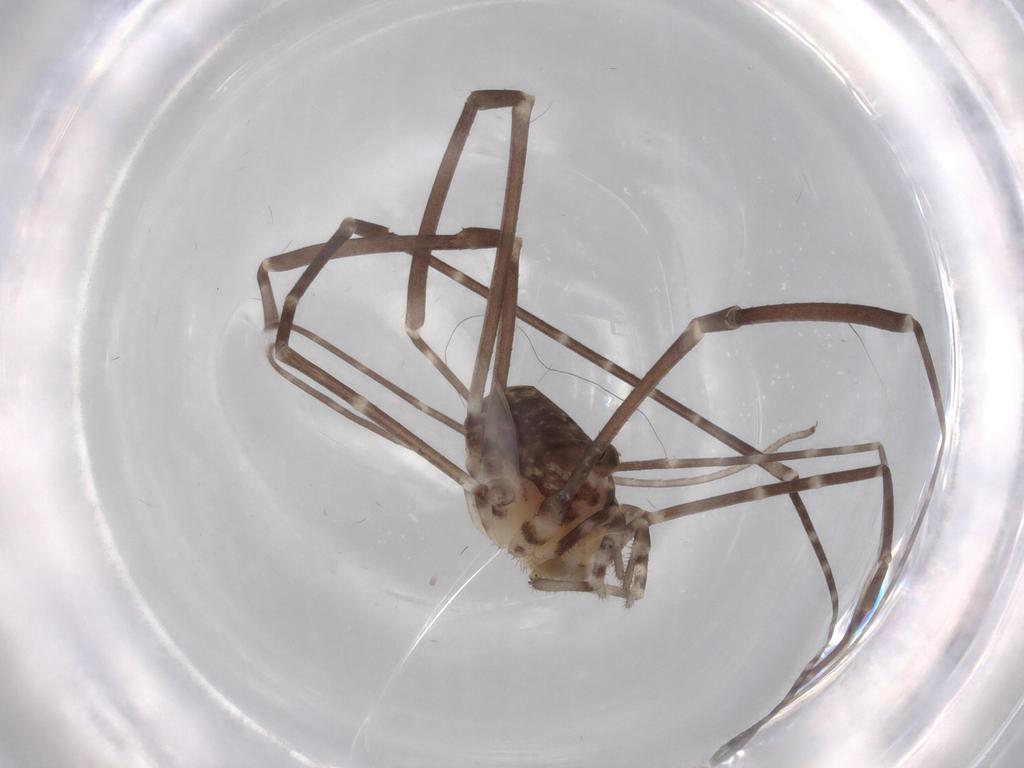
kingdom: Animalia
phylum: Arthropoda
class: Arachnida
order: Opiliones
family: Sclerosomatidae
